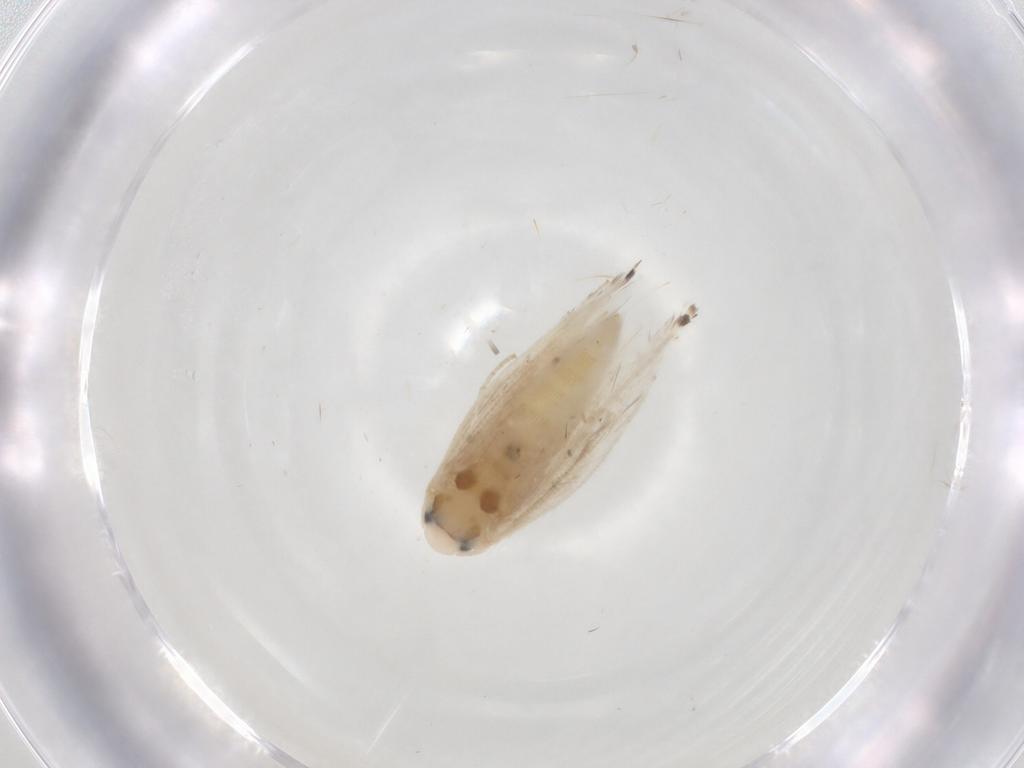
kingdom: Animalia
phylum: Arthropoda
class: Insecta
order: Lepidoptera
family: Gracillariidae
